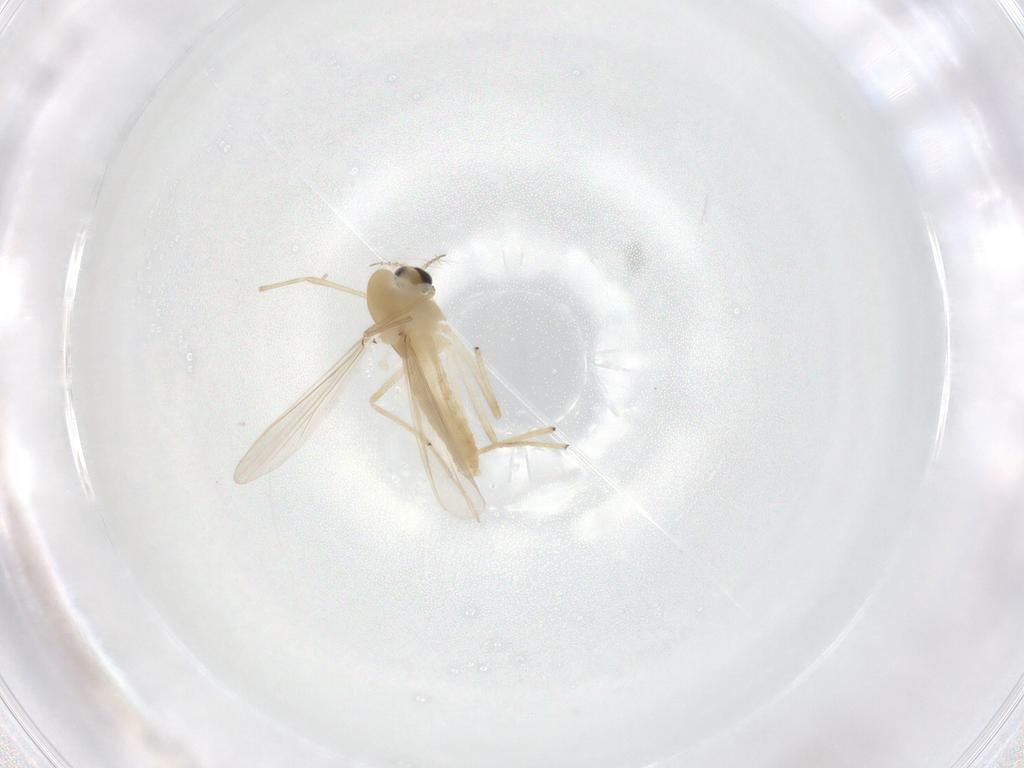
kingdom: Animalia
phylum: Arthropoda
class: Insecta
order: Diptera
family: Chironomidae
